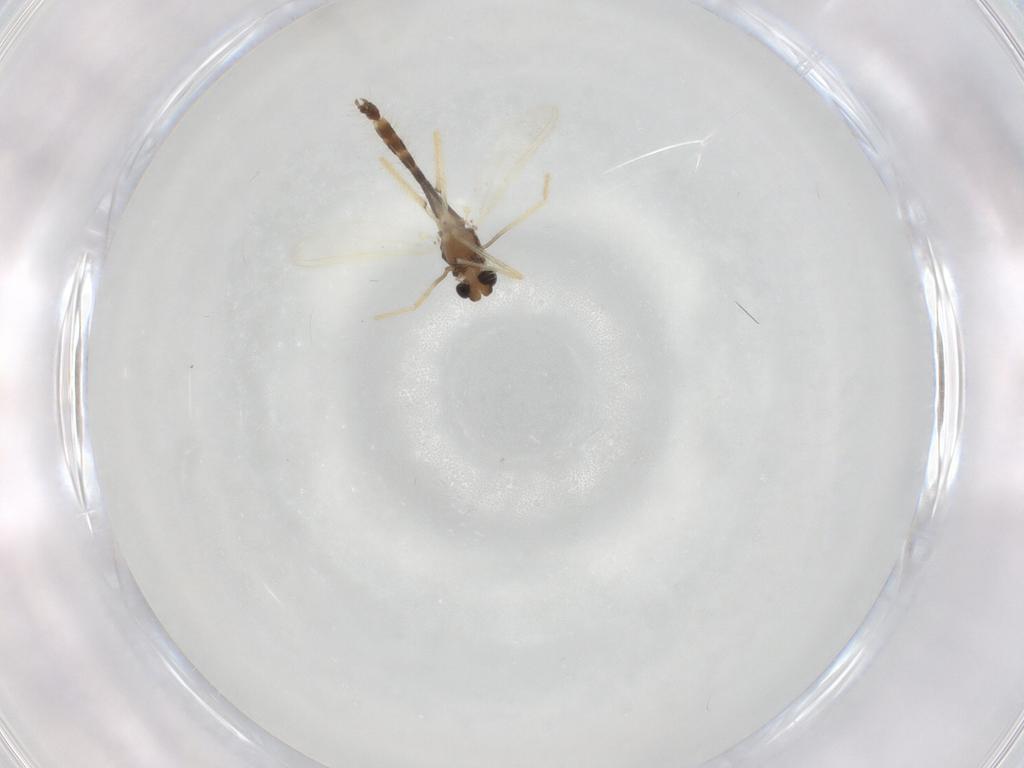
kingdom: Animalia
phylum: Arthropoda
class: Insecta
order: Diptera
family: Chironomidae
